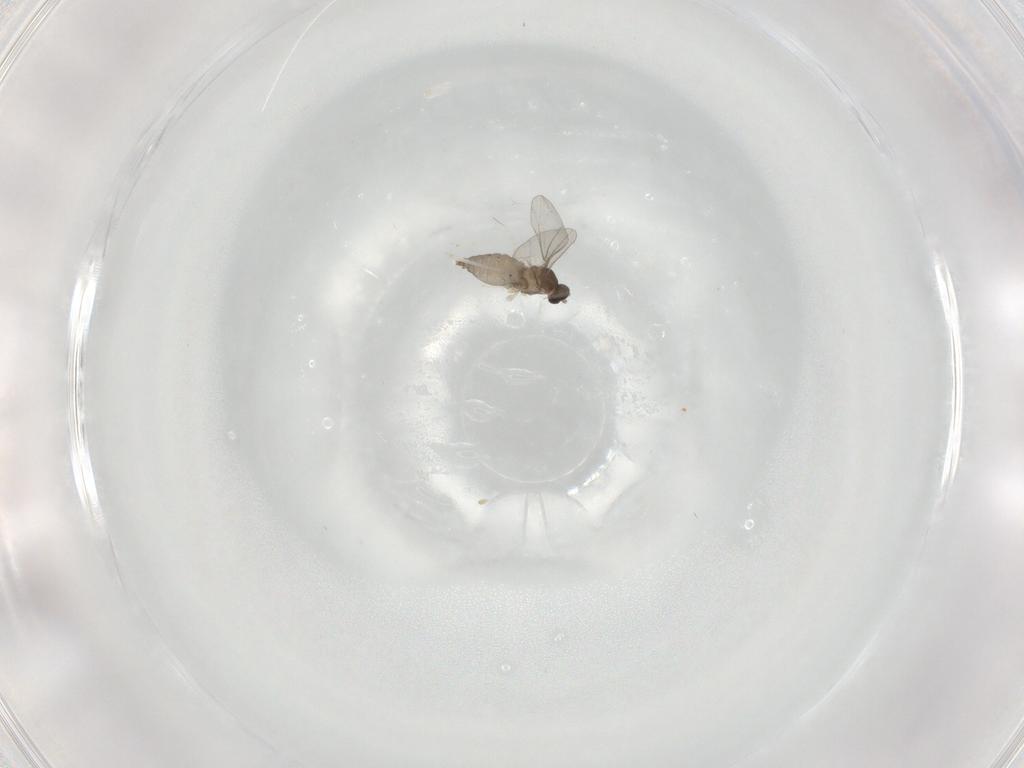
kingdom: Animalia
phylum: Arthropoda
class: Insecta
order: Diptera
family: Cecidomyiidae
